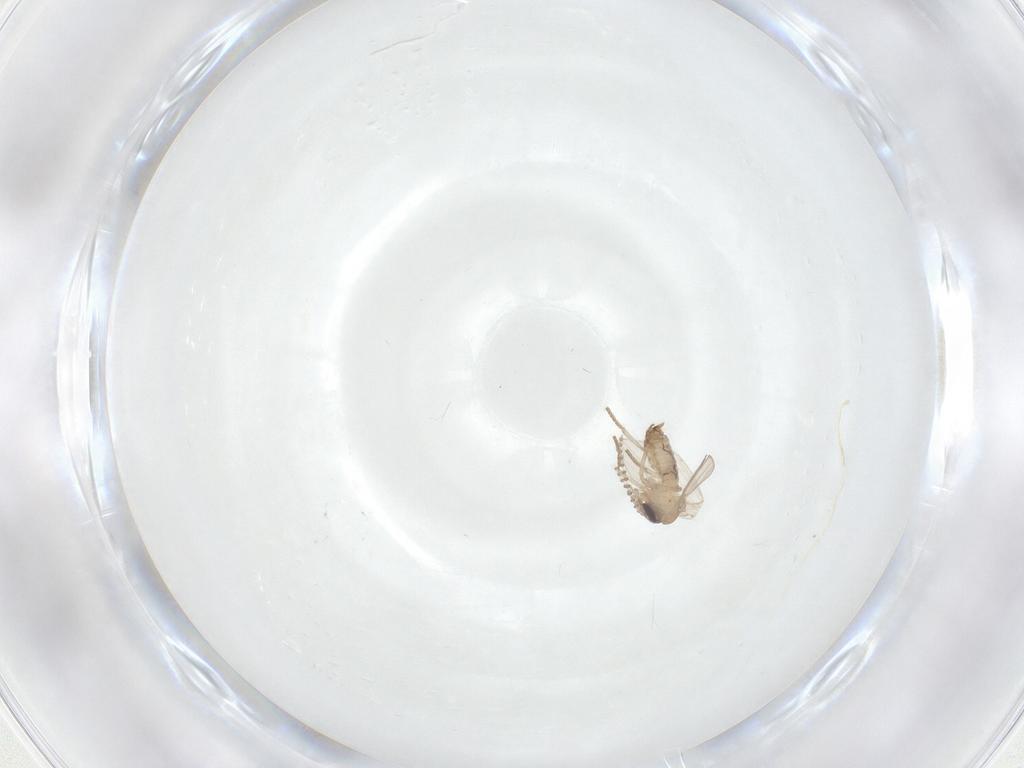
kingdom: Animalia
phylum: Arthropoda
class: Insecta
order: Diptera
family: Psychodidae
